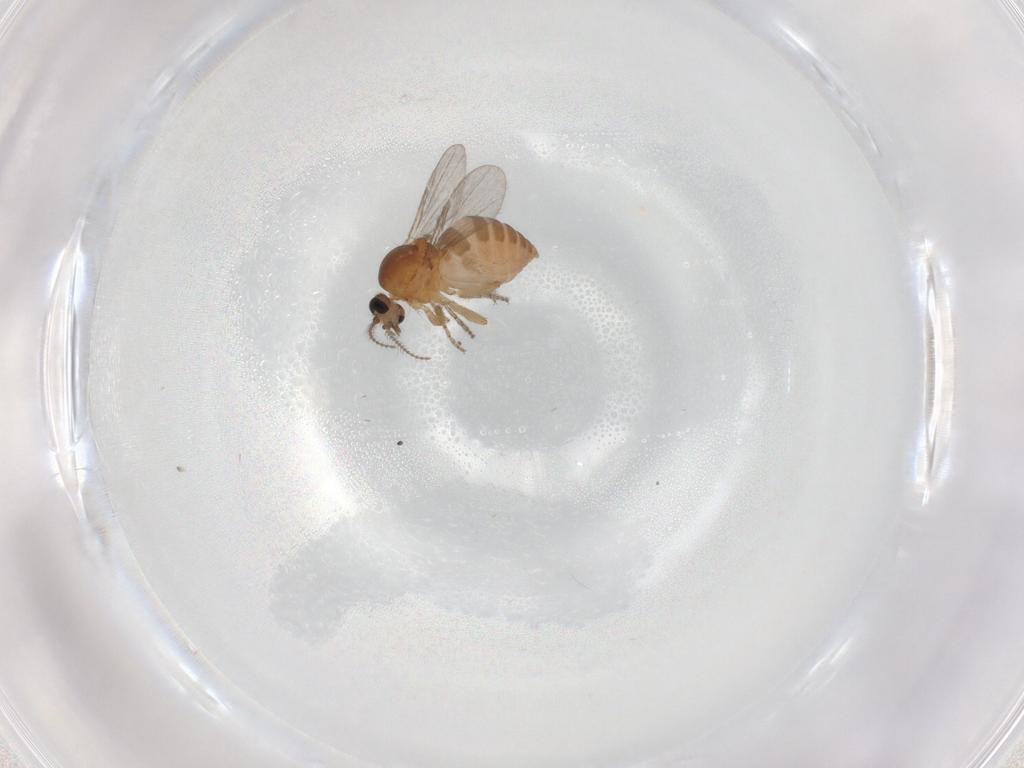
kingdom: Animalia
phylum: Arthropoda
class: Insecta
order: Diptera
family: Ceratopogonidae
